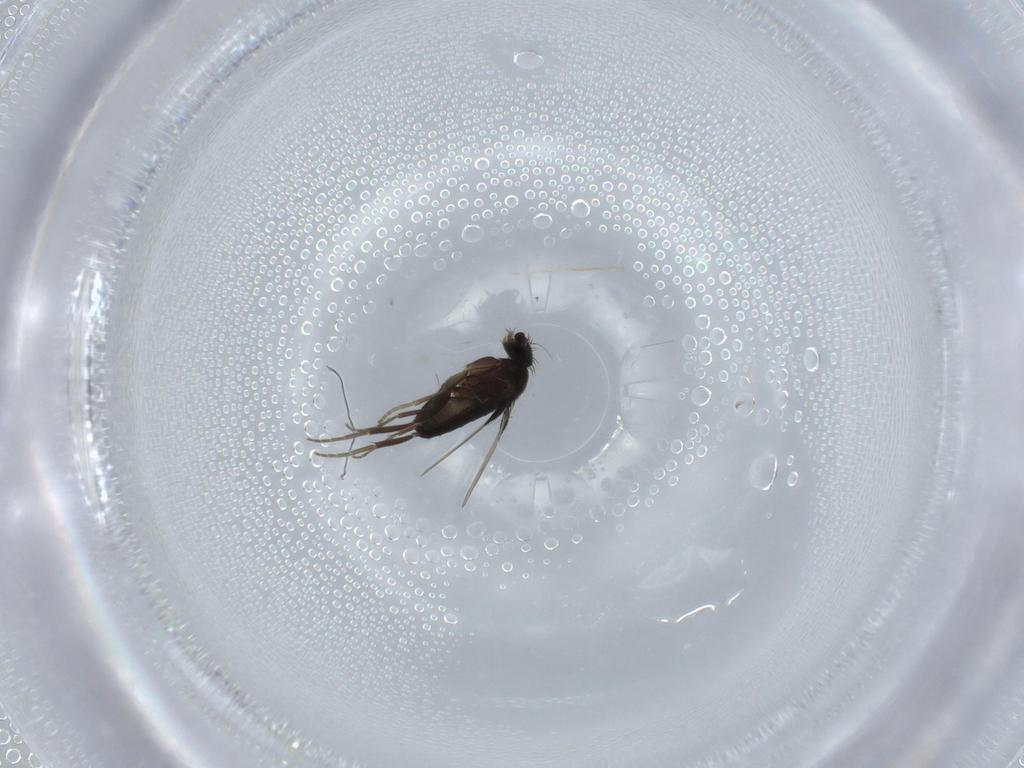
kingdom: Animalia
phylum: Arthropoda
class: Insecta
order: Diptera
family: Phoridae
